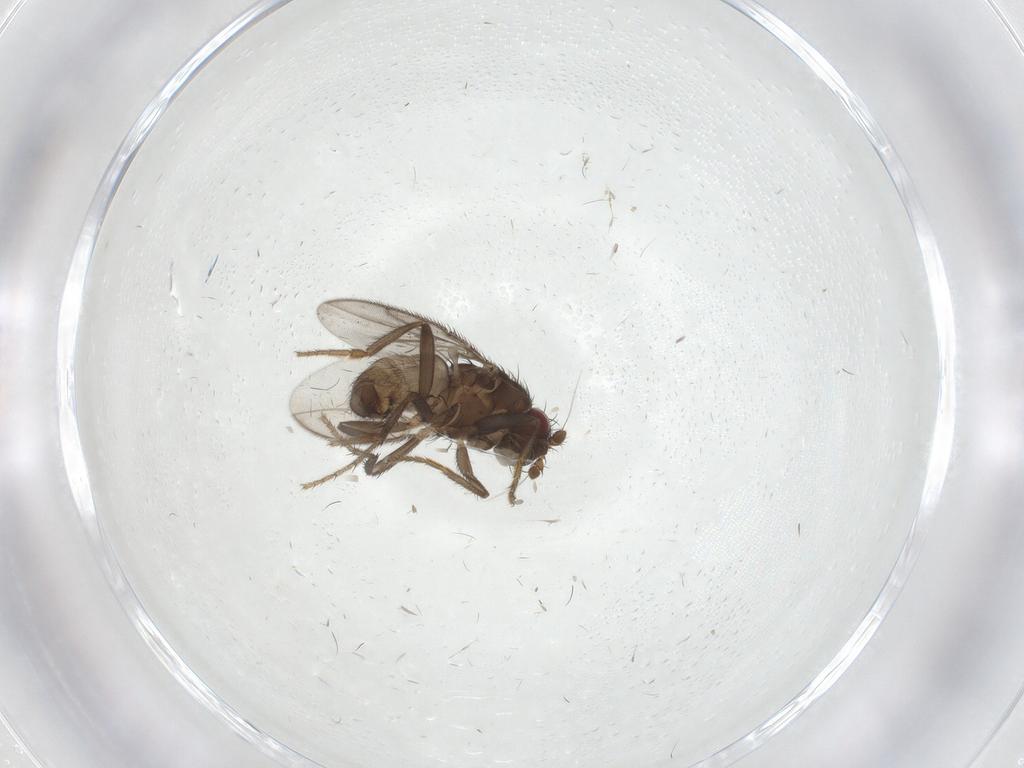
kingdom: Animalia
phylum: Arthropoda
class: Insecta
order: Diptera
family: Sphaeroceridae
